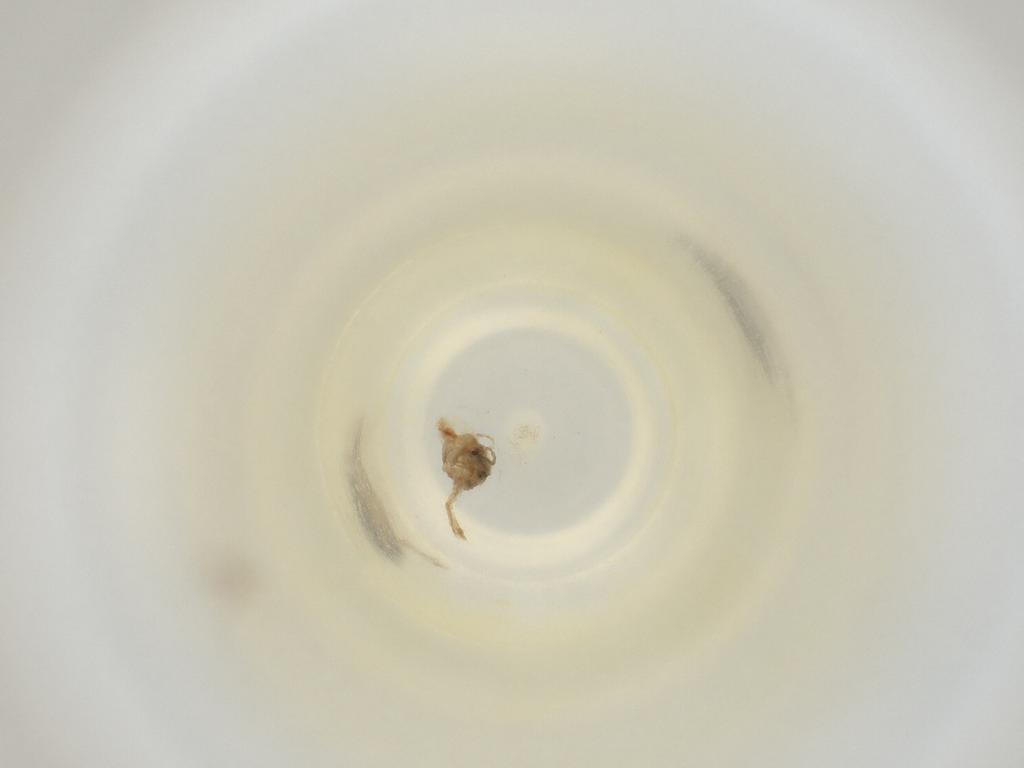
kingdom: Animalia
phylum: Arthropoda
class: Insecta
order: Diptera
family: Cecidomyiidae
